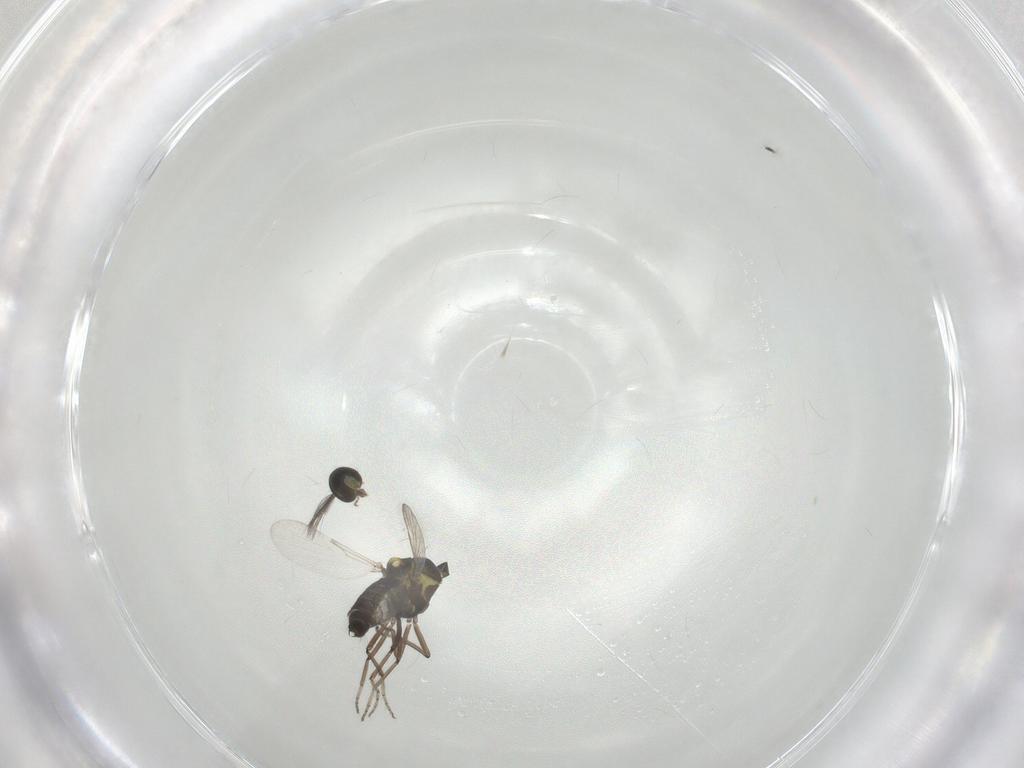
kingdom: Animalia
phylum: Arthropoda
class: Insecta
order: Diptera
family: Ceratopogonidae
